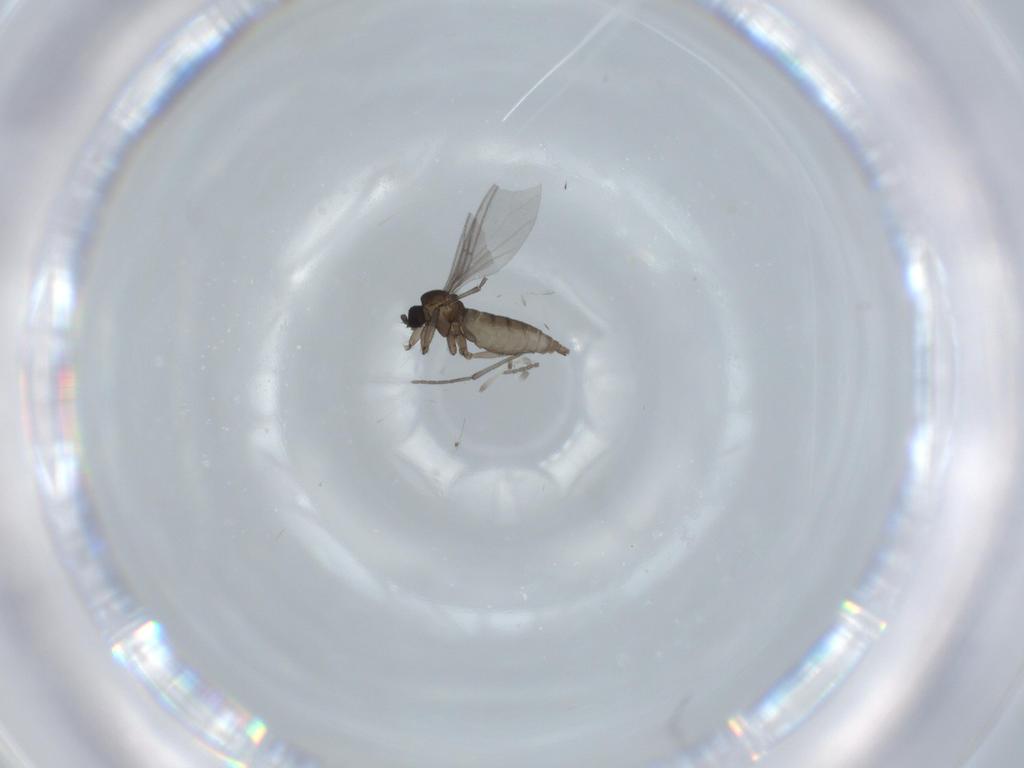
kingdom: Animalia
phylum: Arthropoda
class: Insecta
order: Diptera
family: Sciaridae
